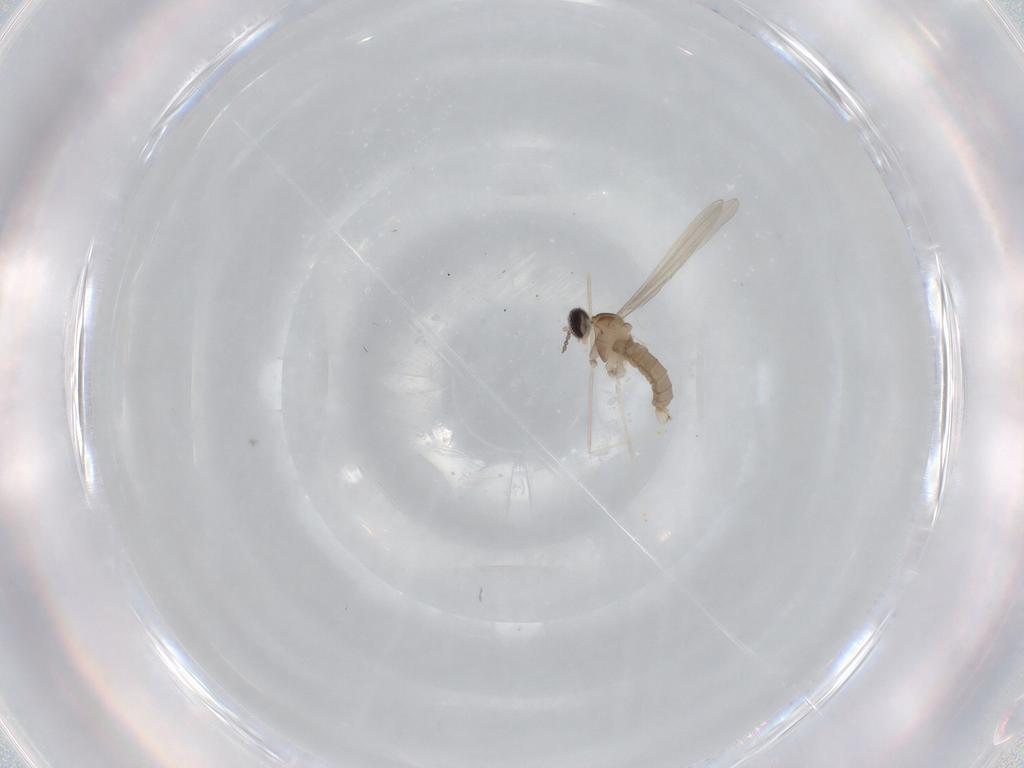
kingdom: Animalia
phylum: Arthropoda
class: Insecta
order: Diptera
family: Cecidomyiidae
